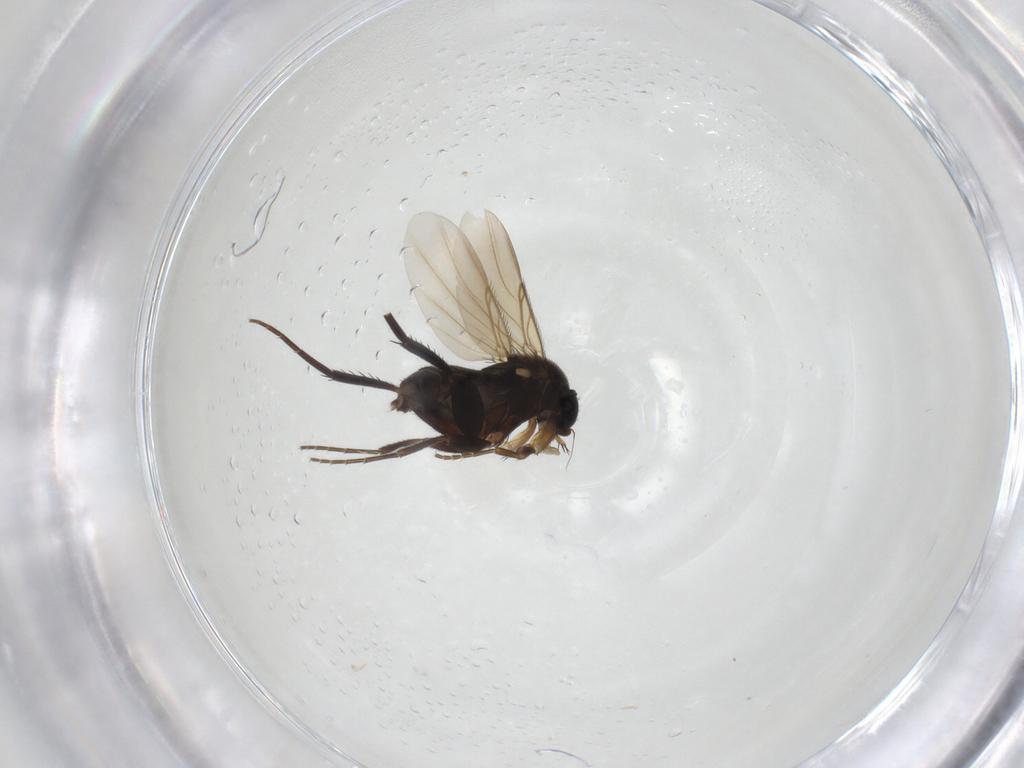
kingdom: Animalia
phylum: Arthropoda
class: Insecta
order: Diptera
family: Phoridae
